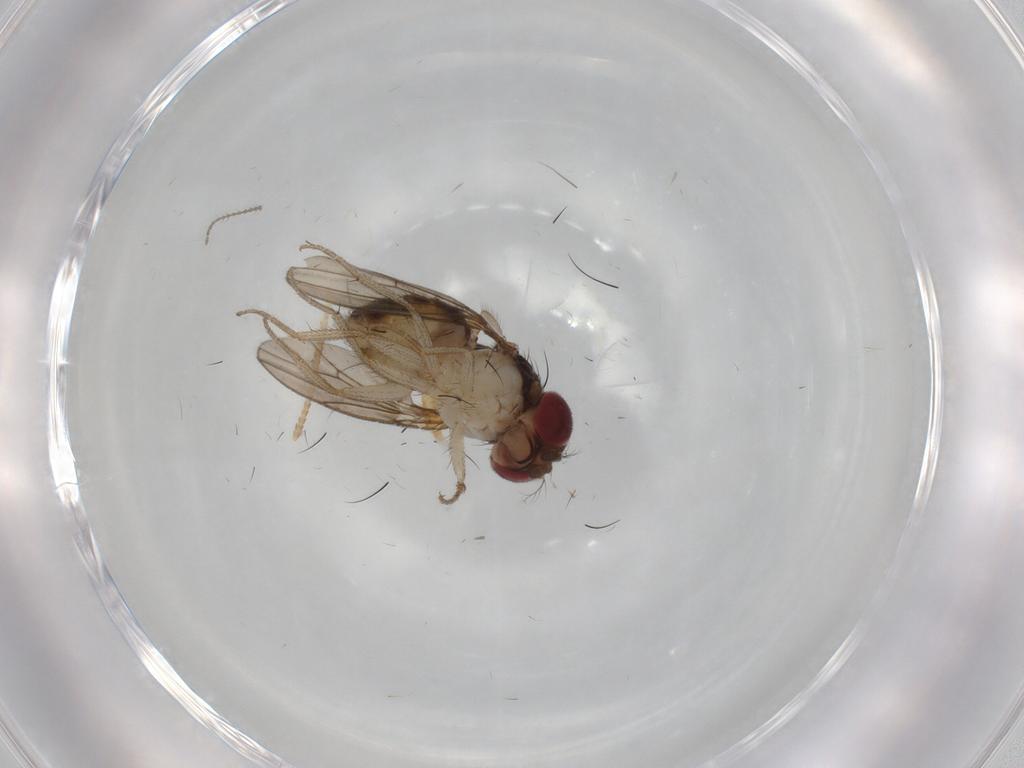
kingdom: Animalia
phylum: Arthropoda
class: Insecta
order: Diptera
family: Drosophilidae
